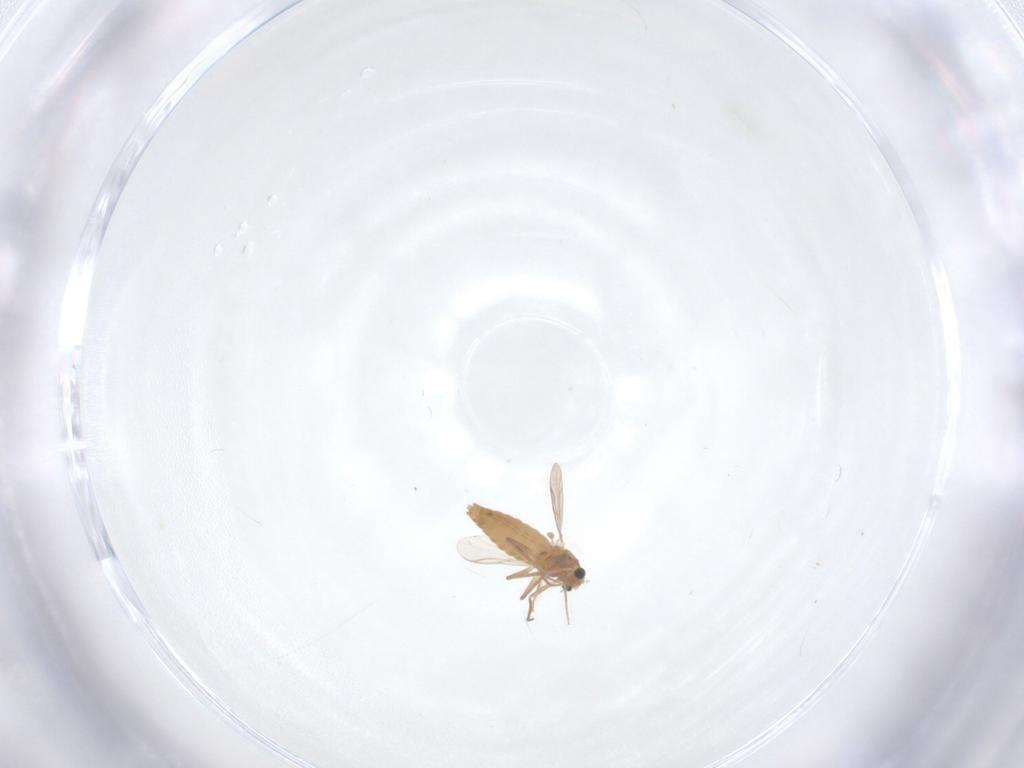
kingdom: Animalia
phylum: Arthropoda
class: Insecta
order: Diptera
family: Chironomidae
